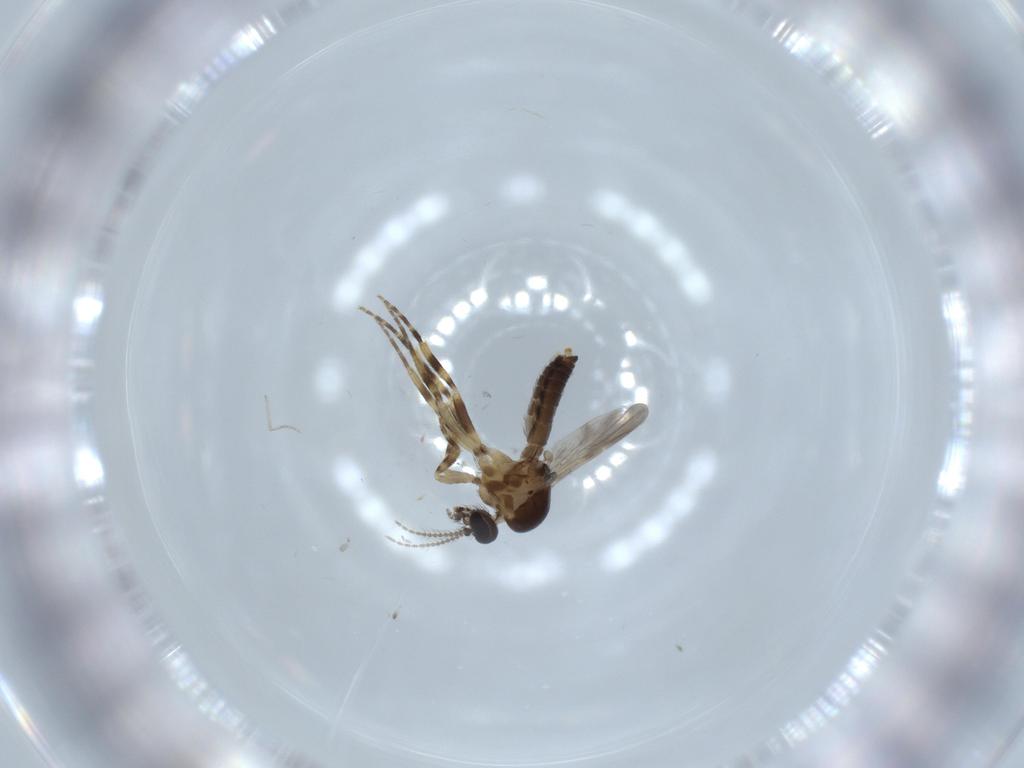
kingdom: Animalia
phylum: Arthropoda
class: Insecta
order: Diptera
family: Cecidomyiidae
